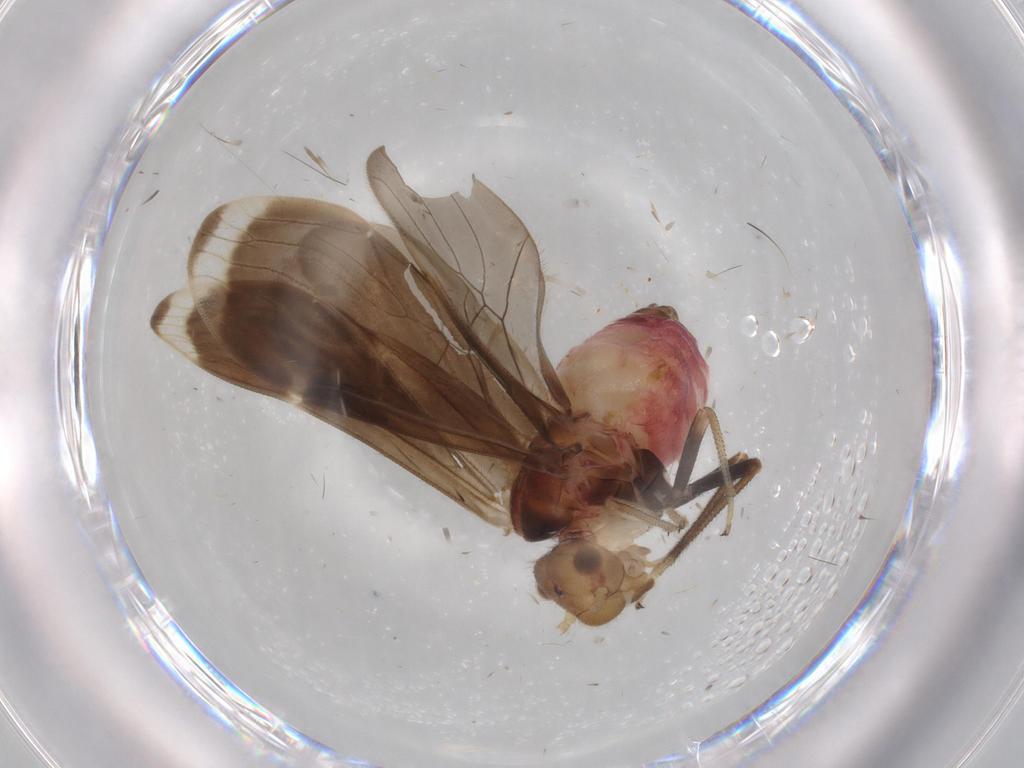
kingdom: Animalia
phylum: Arthropoda
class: Insecta
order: Psocodea
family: Amphipsocidae
